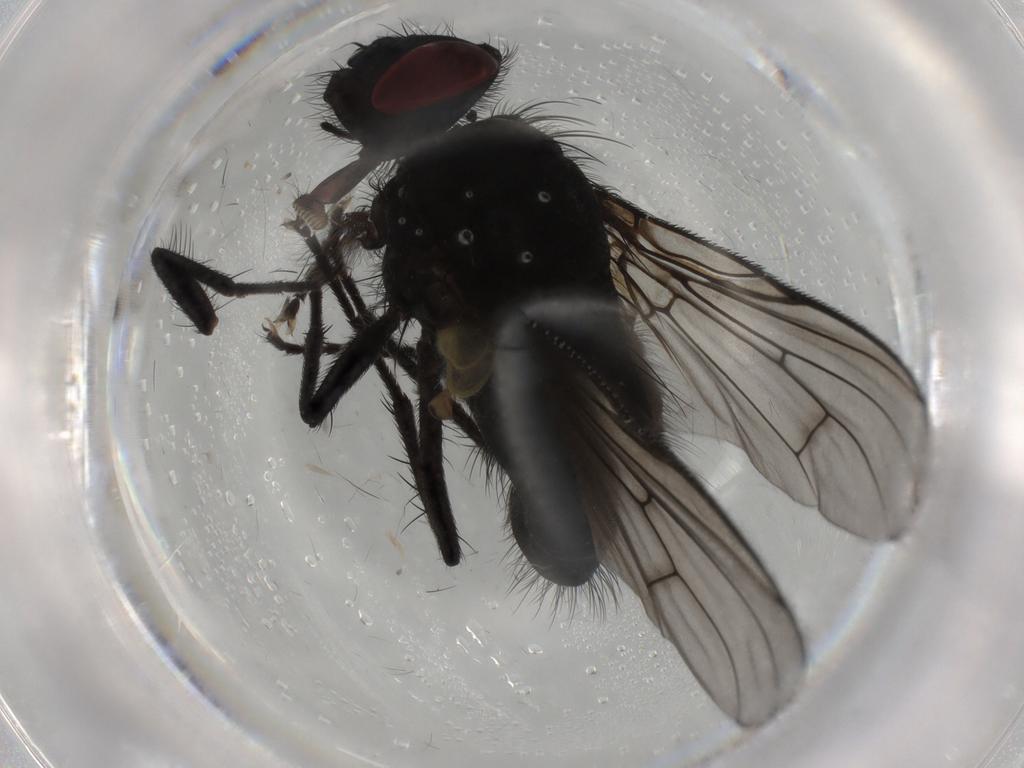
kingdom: Animalia
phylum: Arthropoda
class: Insecta
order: Diptera
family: Muscidae
